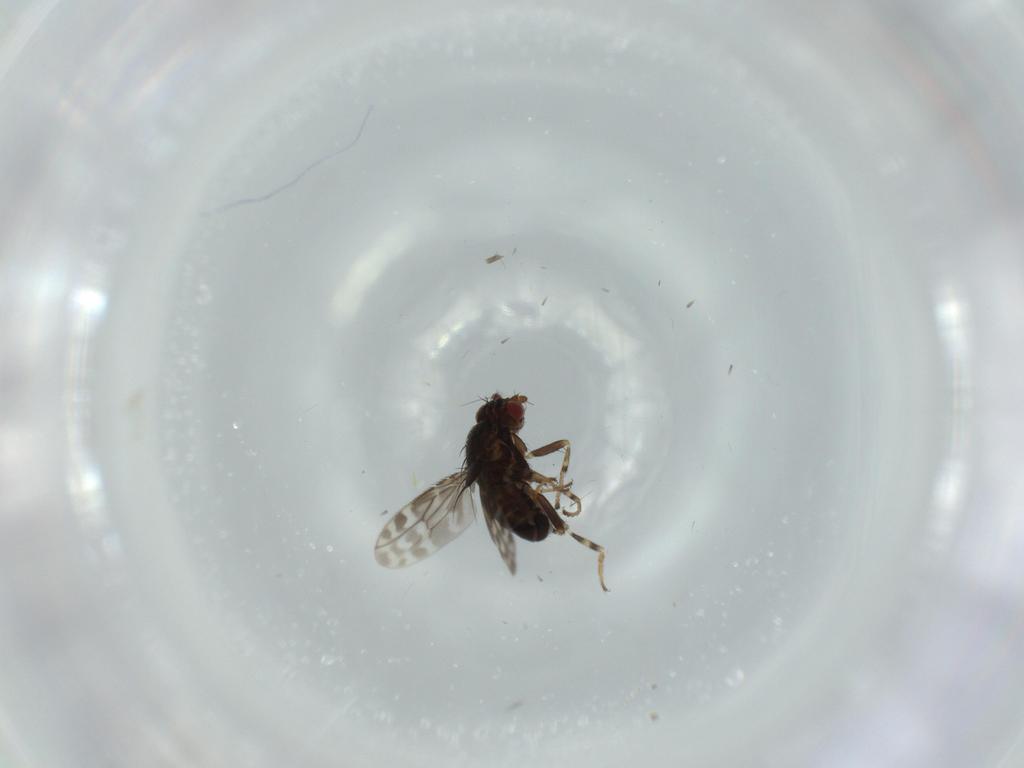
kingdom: Animalia
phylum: Arthropoda
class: Insecta
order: Diptera
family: Sphaeroceridae
